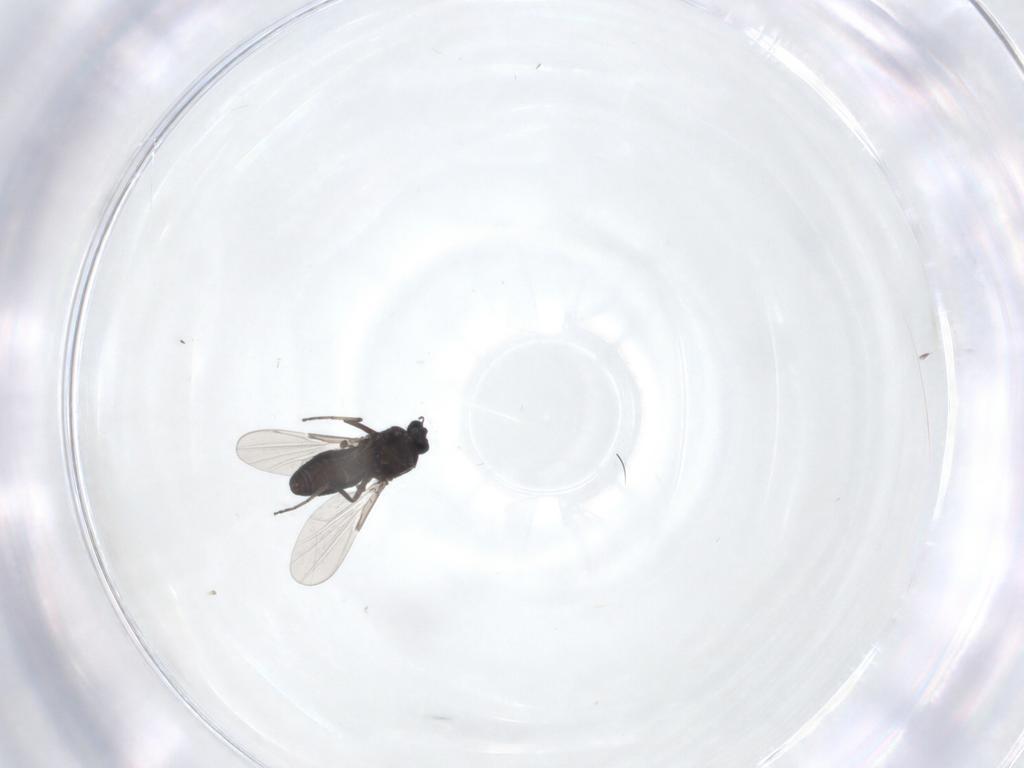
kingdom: Animalia
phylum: Arthropoda
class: Insecta
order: Diptera
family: Ceratopogonidae
